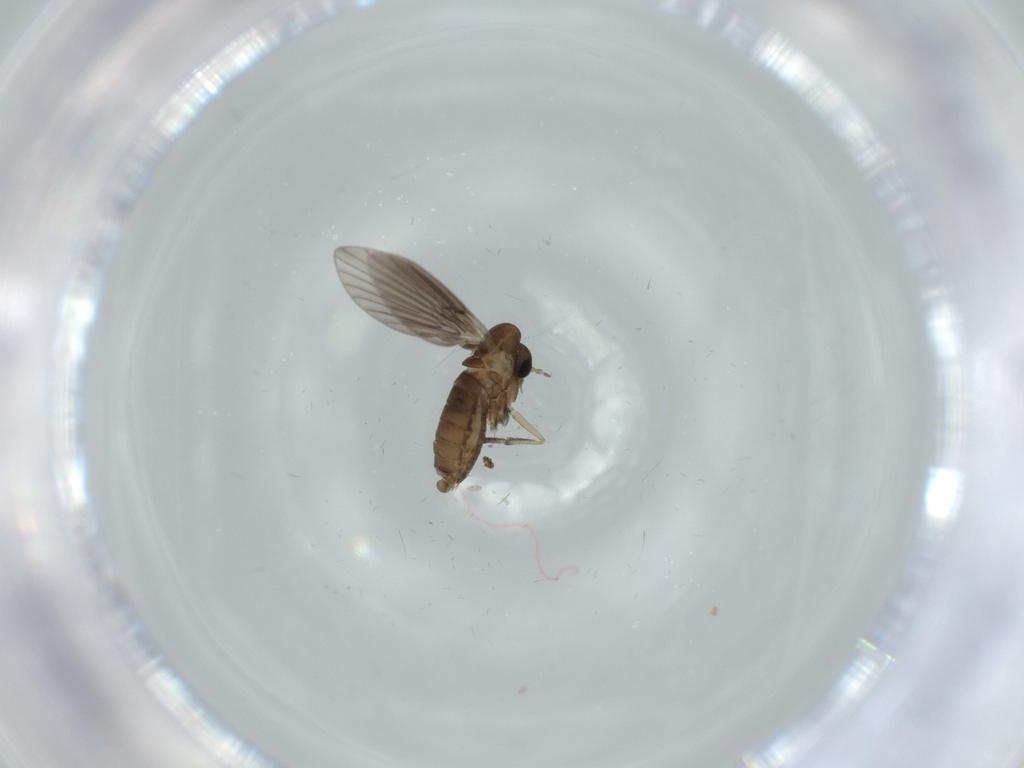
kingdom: Animalia
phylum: Arthropoda
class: Insecta
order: Diptera
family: Psychodidae
